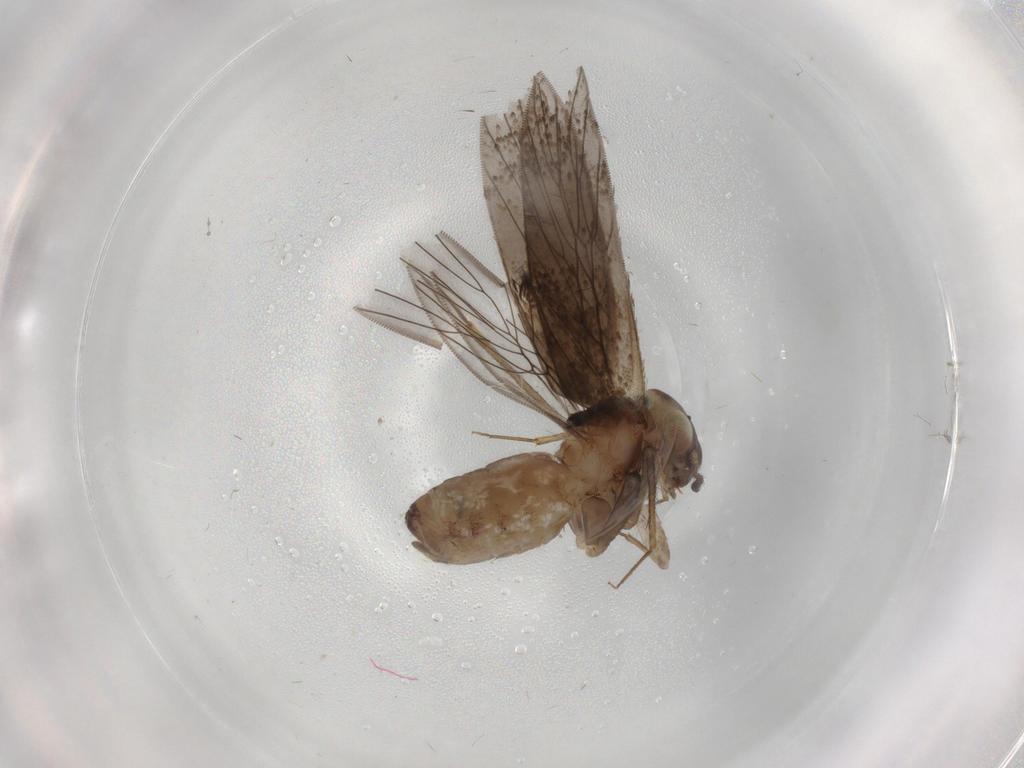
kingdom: Animalia
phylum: Arthropoda
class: Insecta
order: Psocodea
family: Lepidopsocidae
